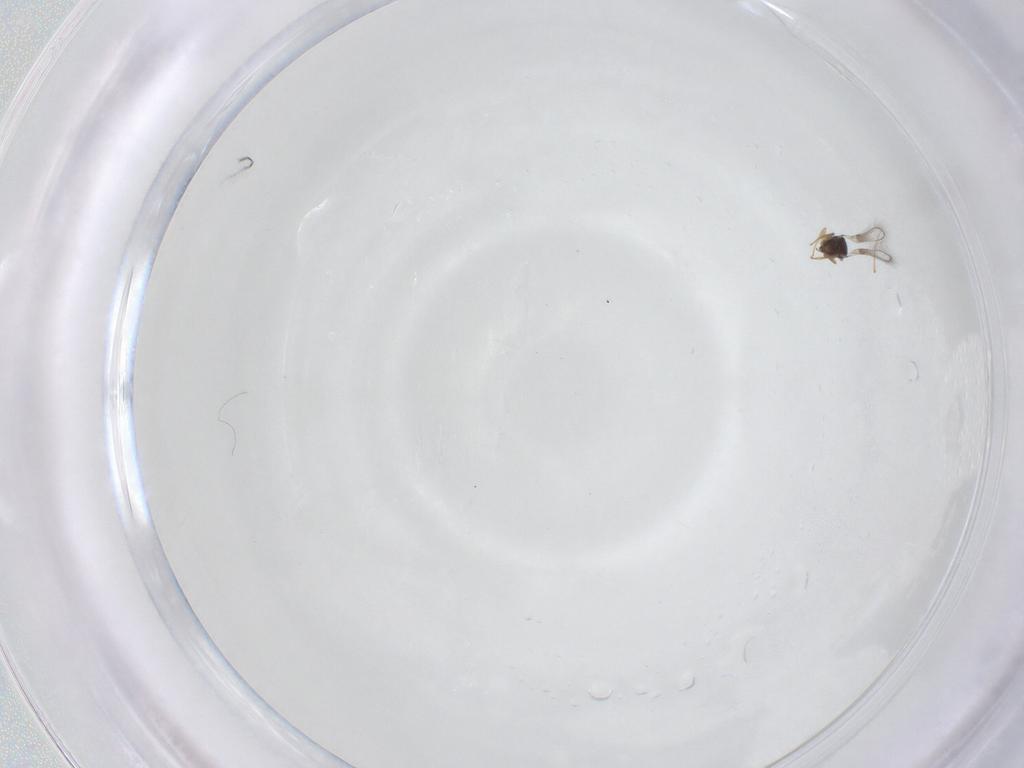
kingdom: Animalia
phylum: Arthropoda
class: Insecta
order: Hymenoptera
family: Mymaridae
